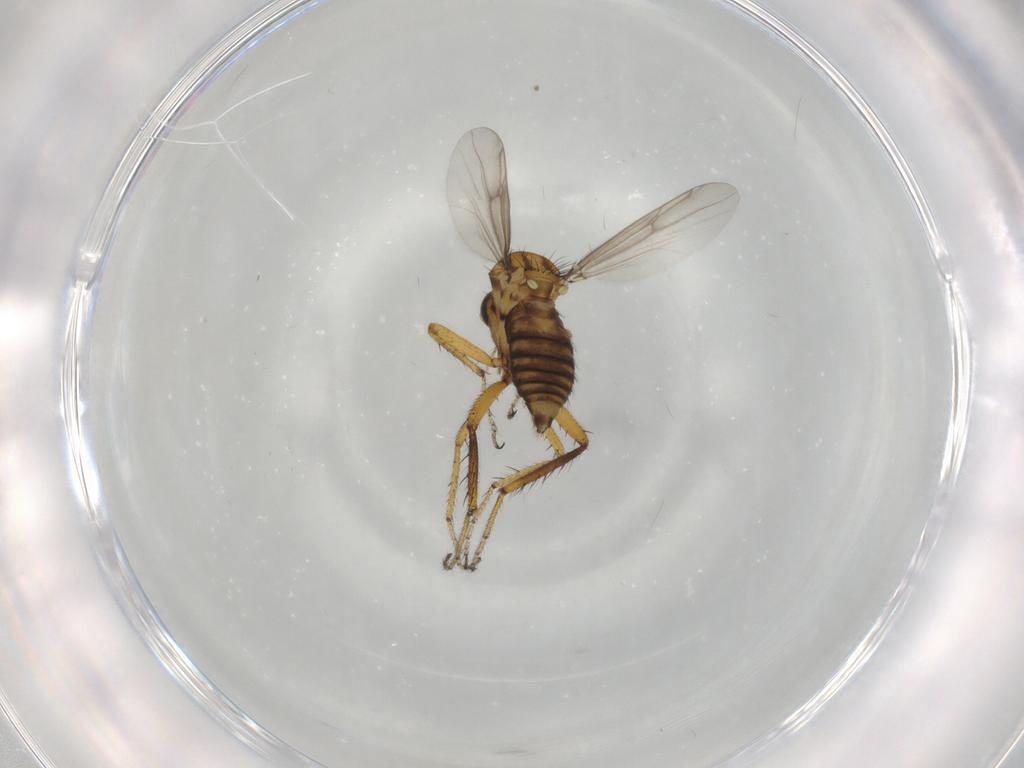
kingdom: Animalia
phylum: Arthropoda
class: Insecta
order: Diptera
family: Ceratopogonidae
